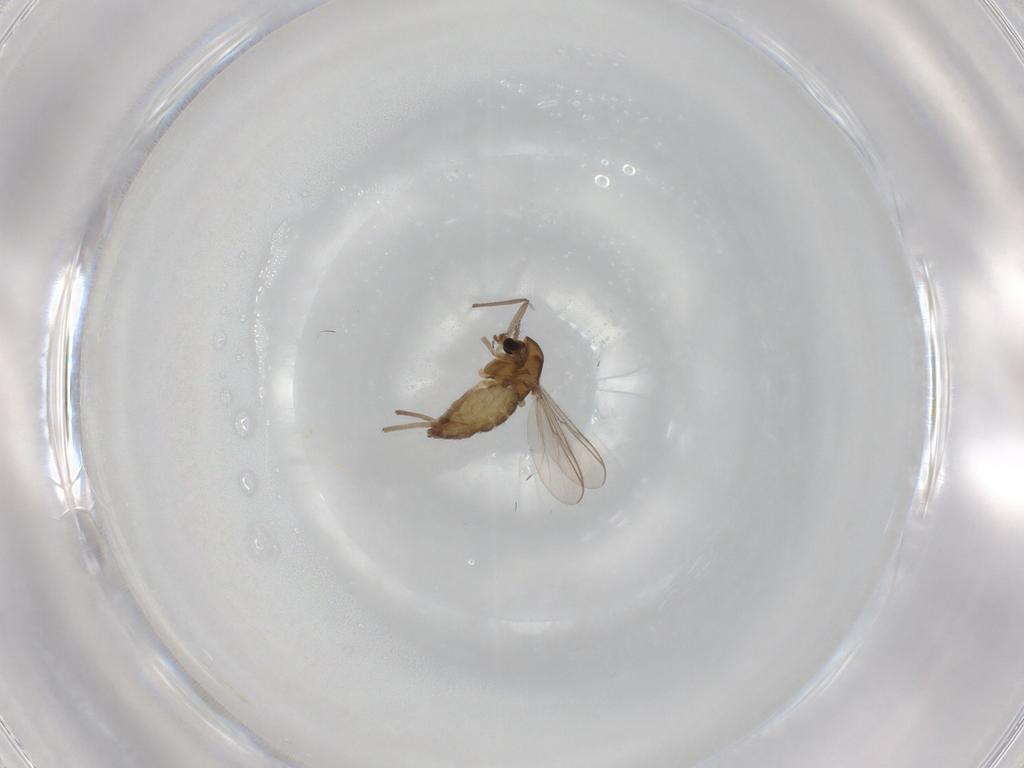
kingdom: Animalia
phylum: Arthropoda
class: Insecta
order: Diptera
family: Chironomidae
